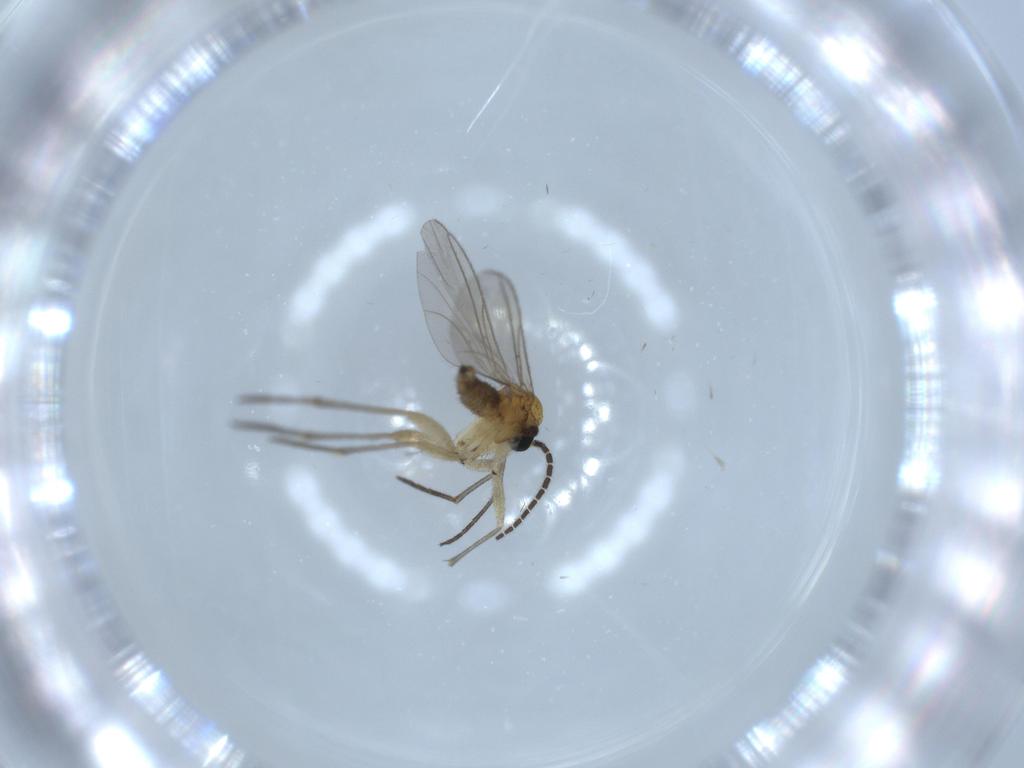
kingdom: Animalia
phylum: Arthropoda
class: Insecta
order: Diptera
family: Sciaridae
